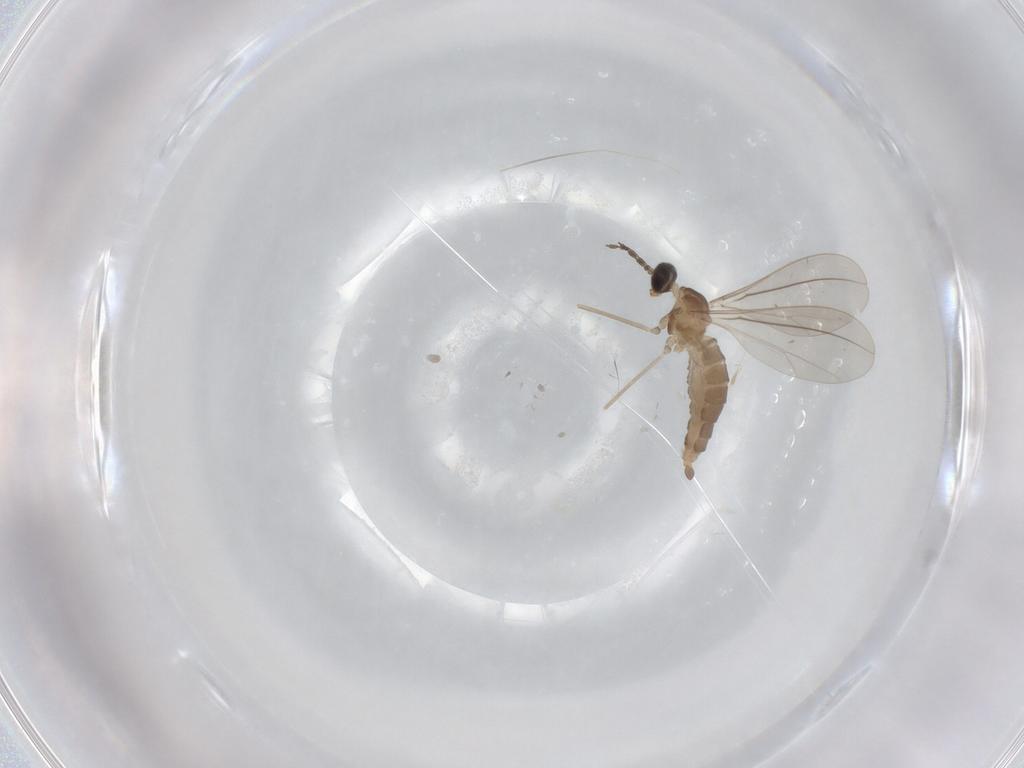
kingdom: Animalia
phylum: Arthropoda
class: Insecta
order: Diptera
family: Cecidomyiidae
